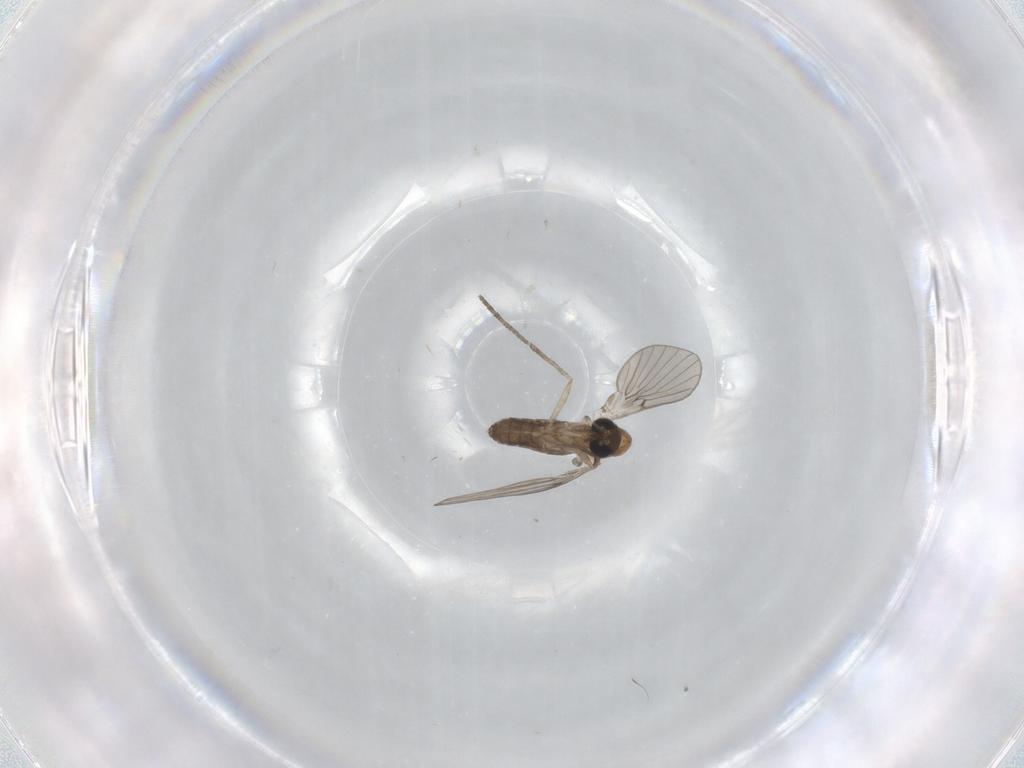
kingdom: Animalia
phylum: Arthropoda
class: Insecta
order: Diptera
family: Psychodidae
